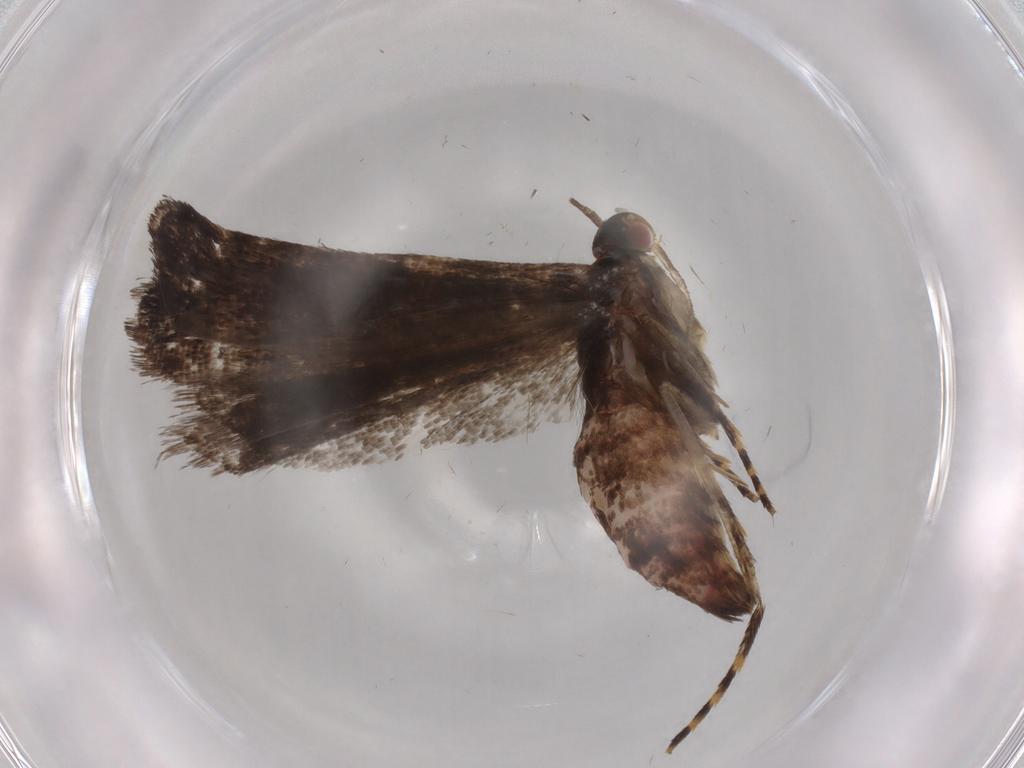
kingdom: Animalia
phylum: Arthropoda
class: Insecta
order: Lepidoptera
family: Gelechiidae
